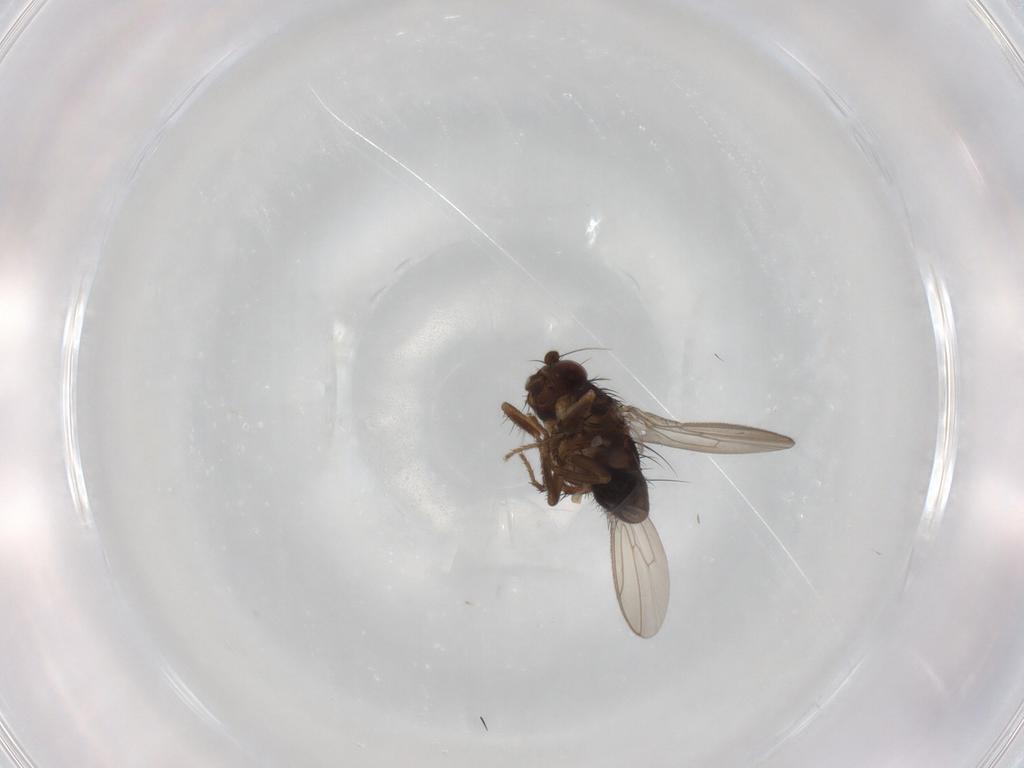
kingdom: Animalia
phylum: Arthropoda
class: Insecta
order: Diptera
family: Sphaeroceridae
